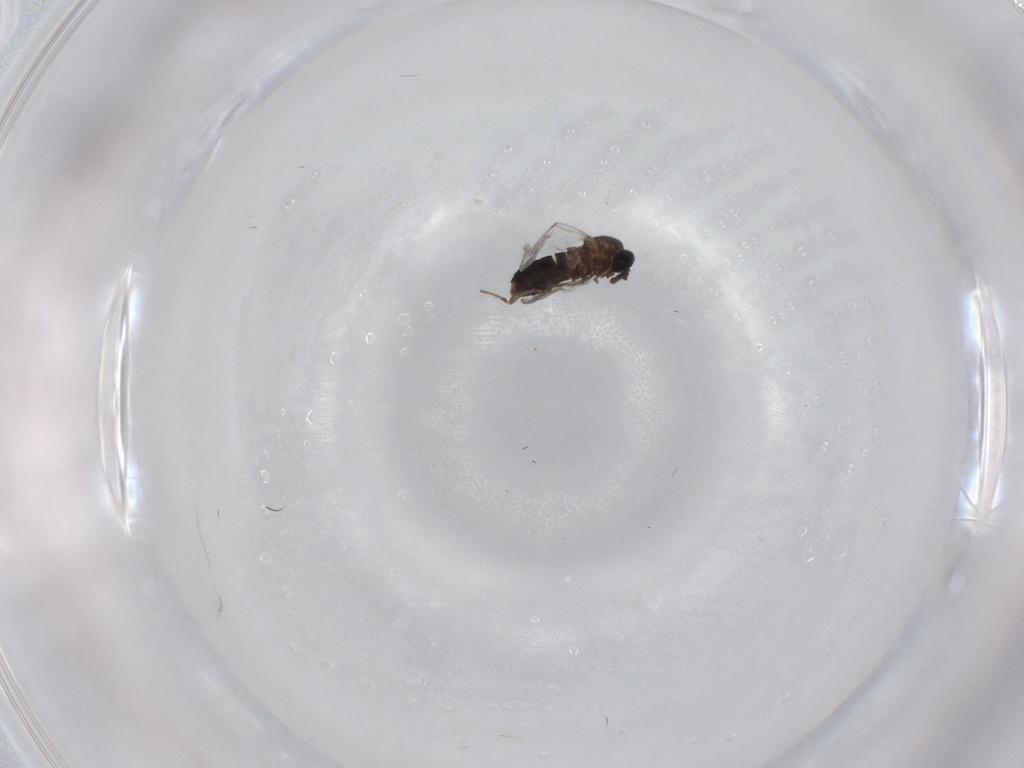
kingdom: Animalia
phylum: Arthropoda
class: Insecta
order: Diptera
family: Calliphoridae
